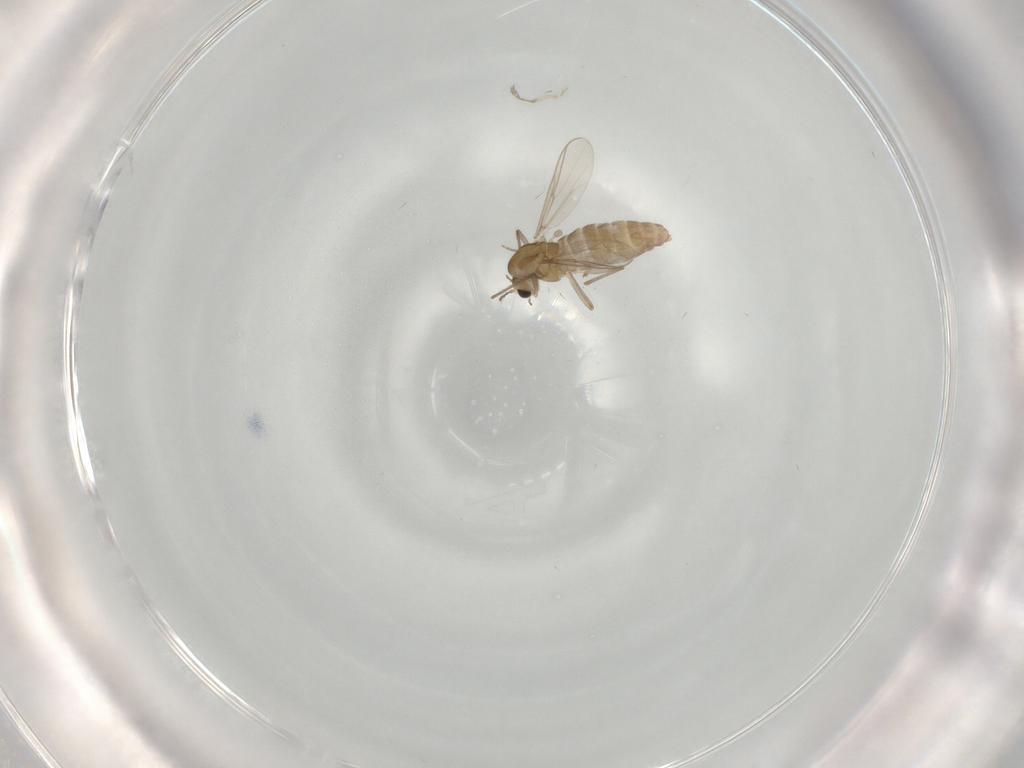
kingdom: Animalia
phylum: Arthropoda
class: Insecta
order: Diptera
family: Chironomidae
